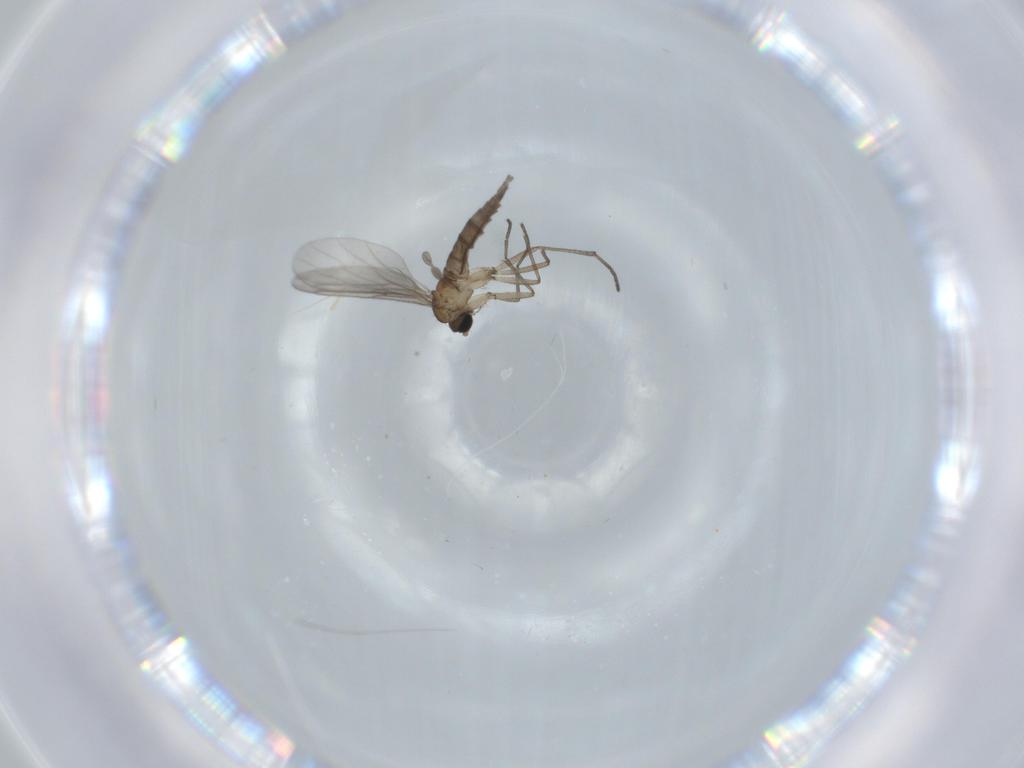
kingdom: Animalia
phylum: Arthropoda
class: Insecta
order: Diptera
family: Sciaridae
